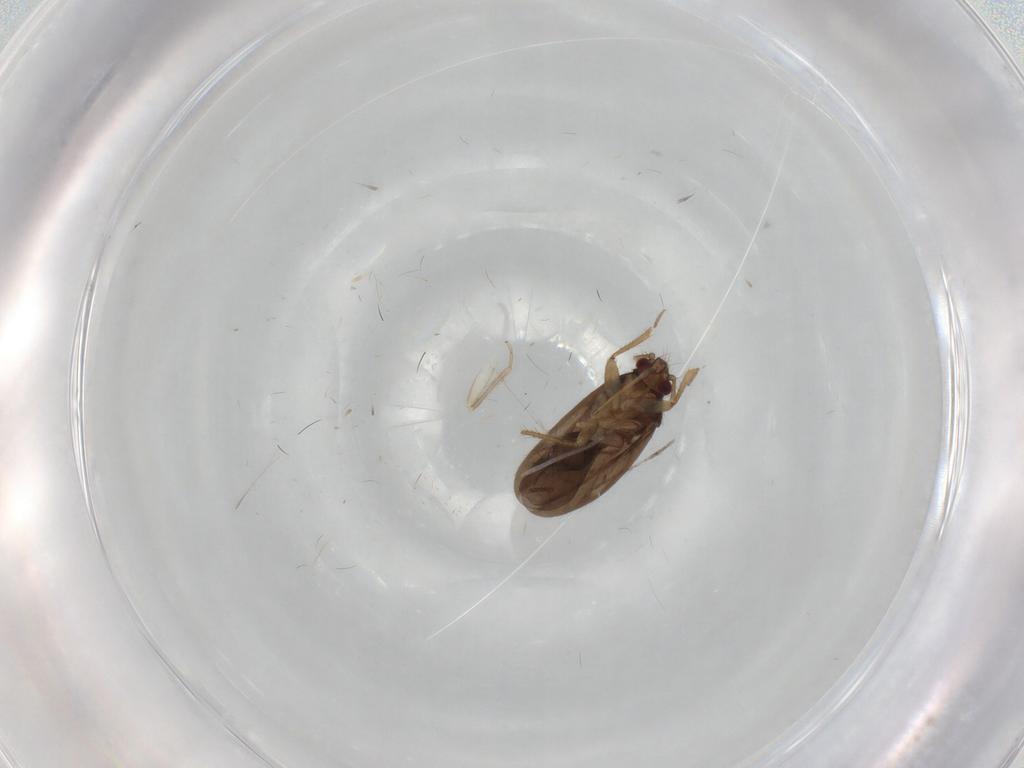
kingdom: Animalia
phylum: Arthropoda
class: Insecta
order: Hemiptera
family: Ceratocombidae
